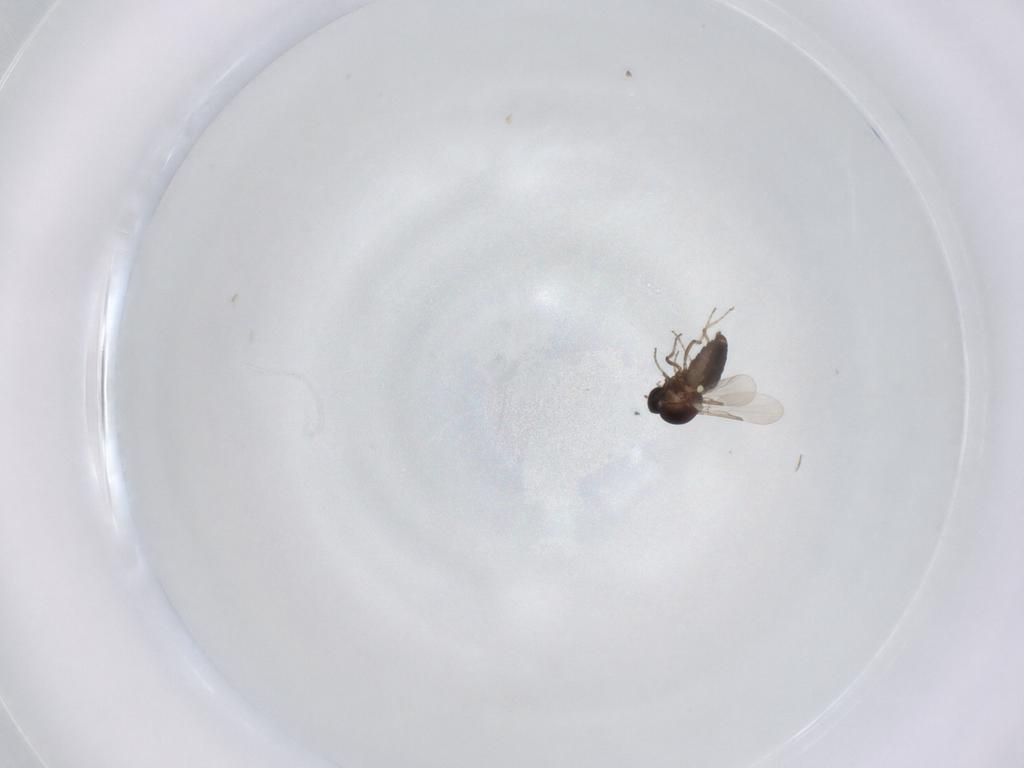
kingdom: Animalia
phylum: Arthropoda
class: Insecta
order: Diptera
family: Ceratopogonidae
